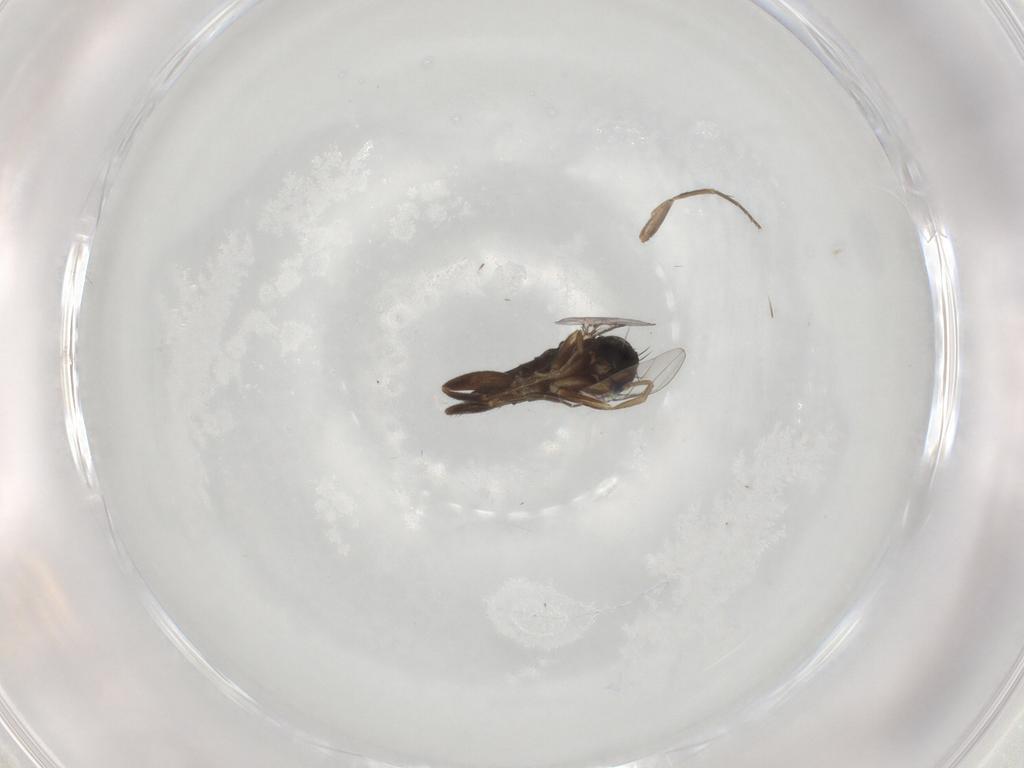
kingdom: Animalia
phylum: Arthropoda
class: Insecta
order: Diptera
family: Phoridae
